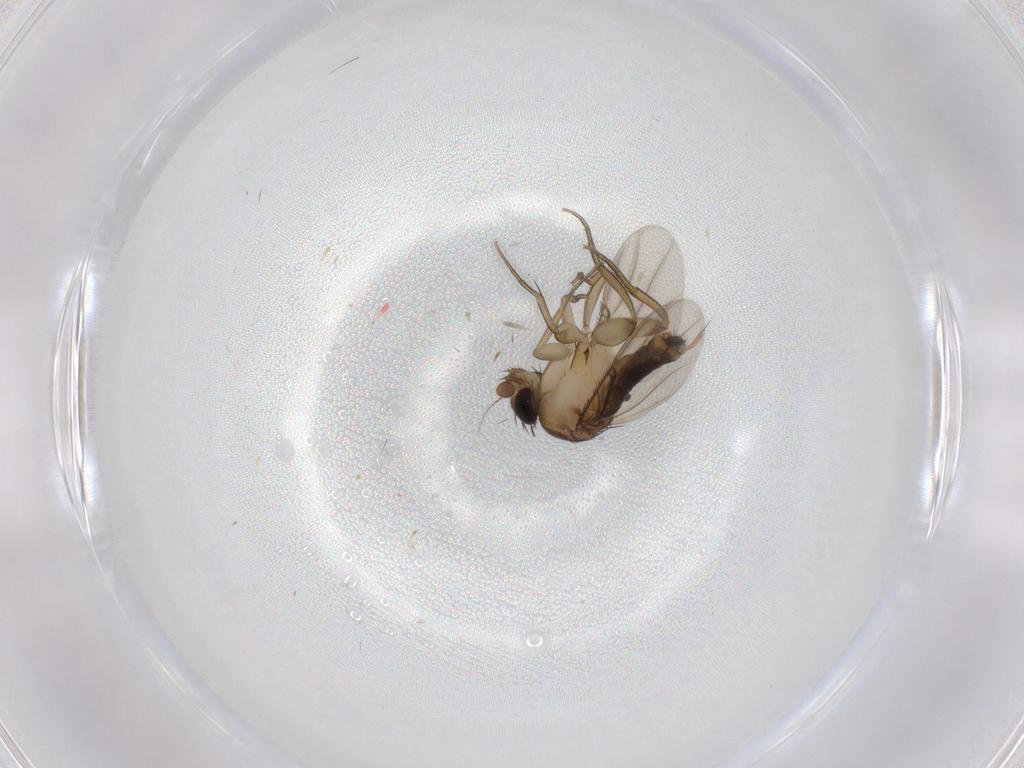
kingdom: Animalia
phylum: Arthropoda
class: Insecta
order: Diptera
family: Phoridae
